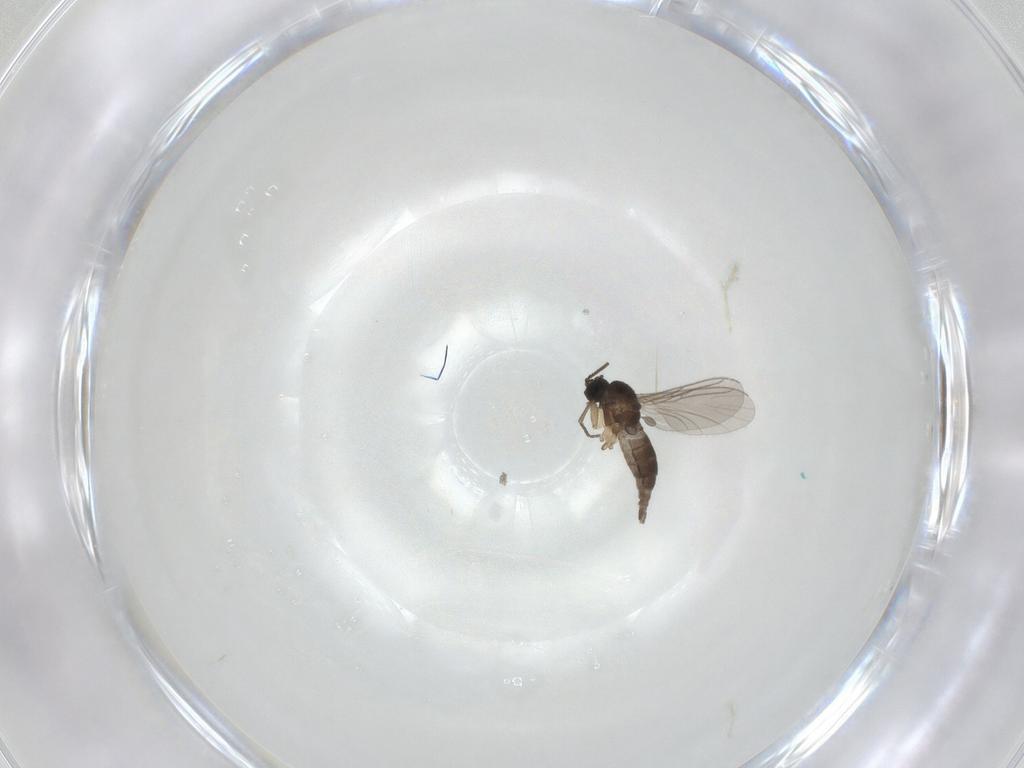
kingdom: Animalia
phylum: Arthropoda
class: Insecta
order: Diptera
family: Sciaridae
